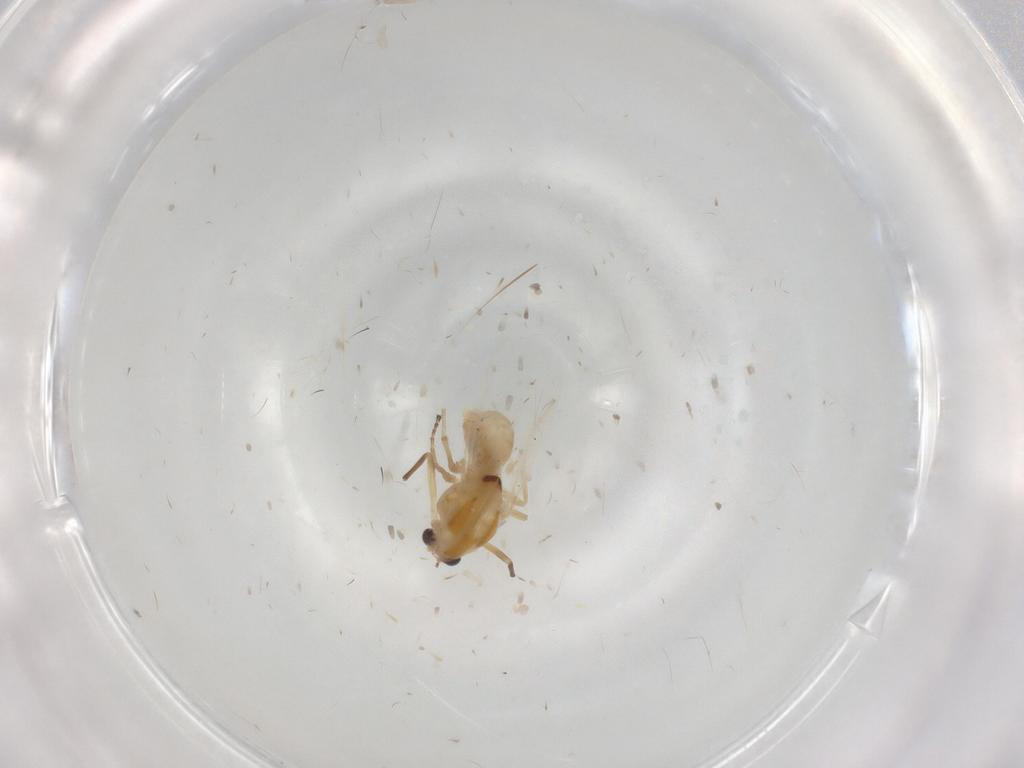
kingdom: Animalia
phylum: Arthropoda
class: Insecta
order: Diptera
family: Chironomidae
